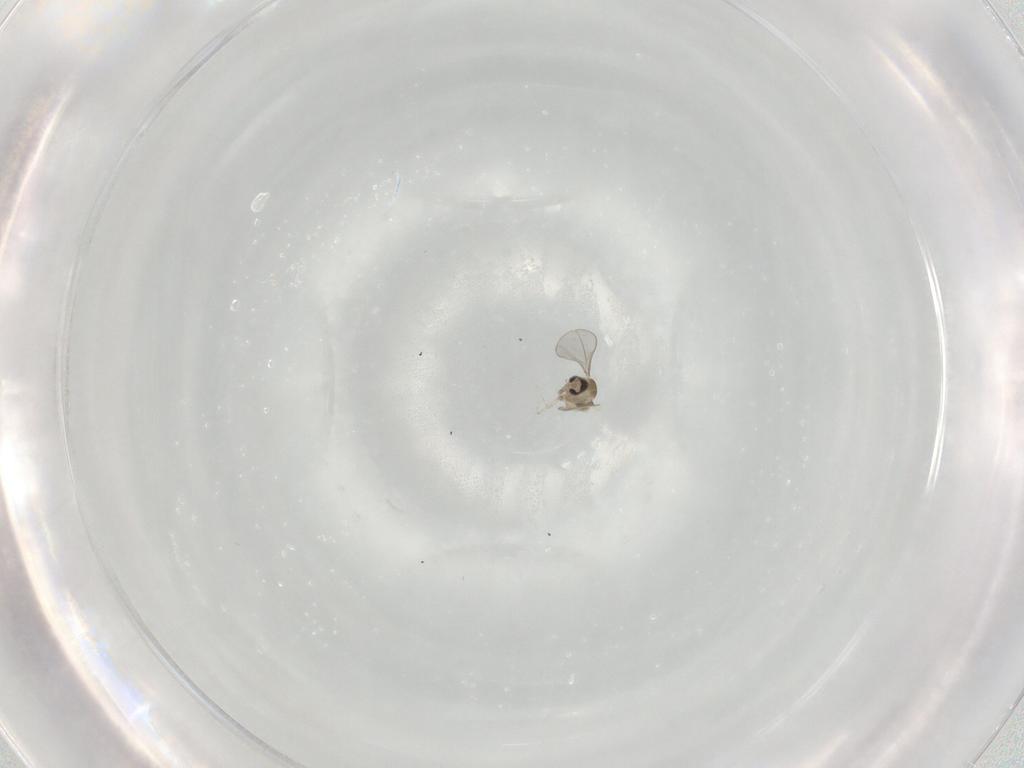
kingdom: Animalia
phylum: Arthropoda
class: Insecta
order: Diptera
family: Cecidomyiidae
